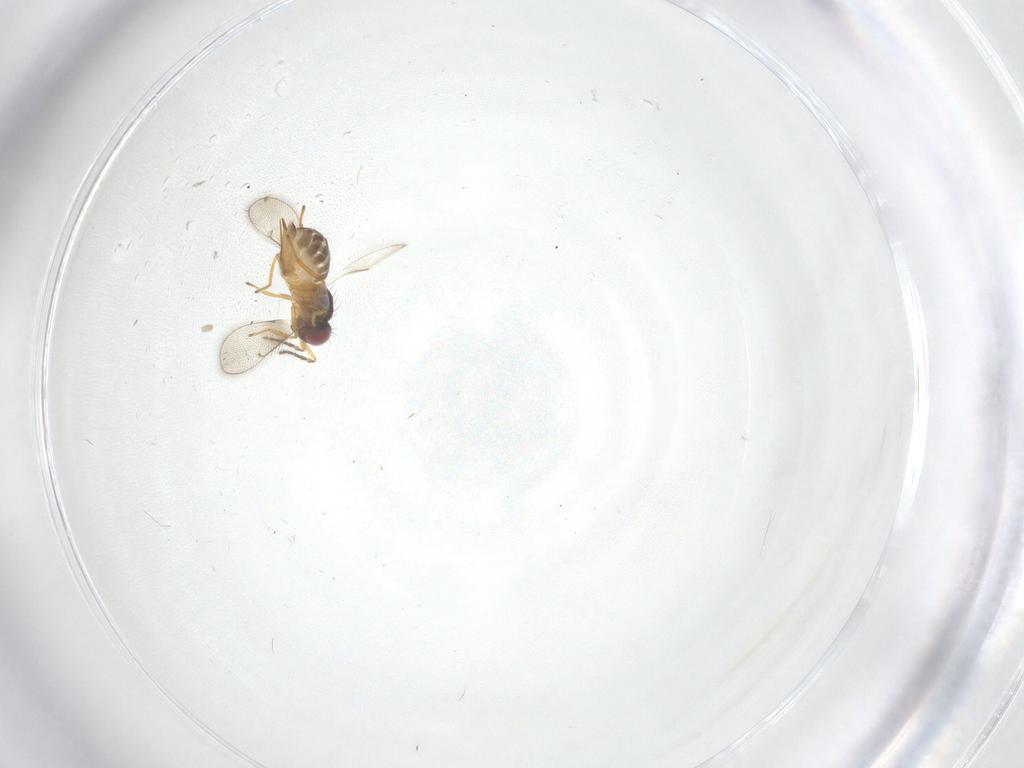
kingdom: Animalia
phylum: Arthropoda
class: Insecta
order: Hymenoptera
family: Eulophidae
